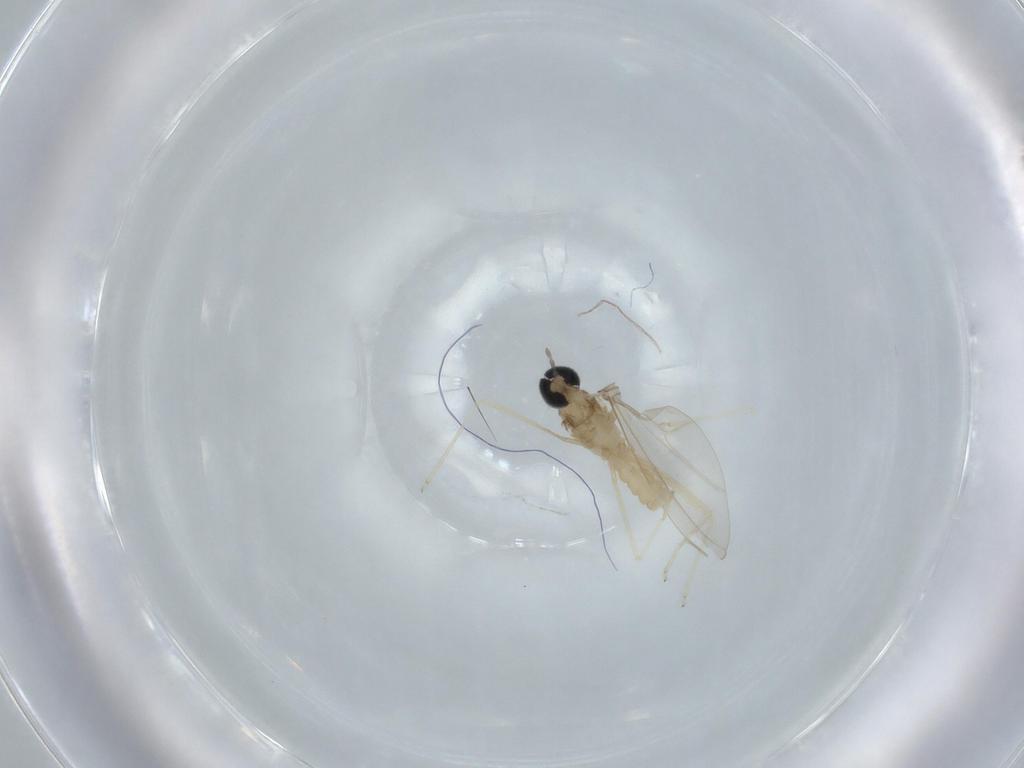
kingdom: Animalia
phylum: Arthropoda
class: Insecta
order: Diptera
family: Cecidomyiidae
